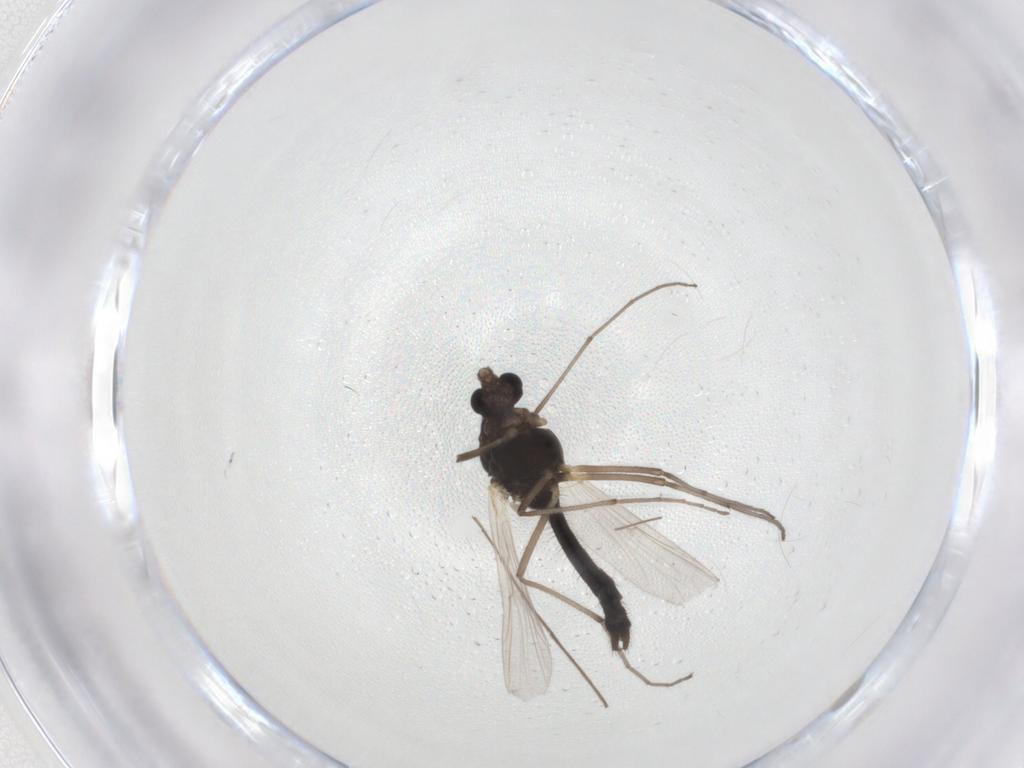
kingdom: Animalia
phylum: Arthropoda
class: Insecta
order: Diptera
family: Chironomidae
